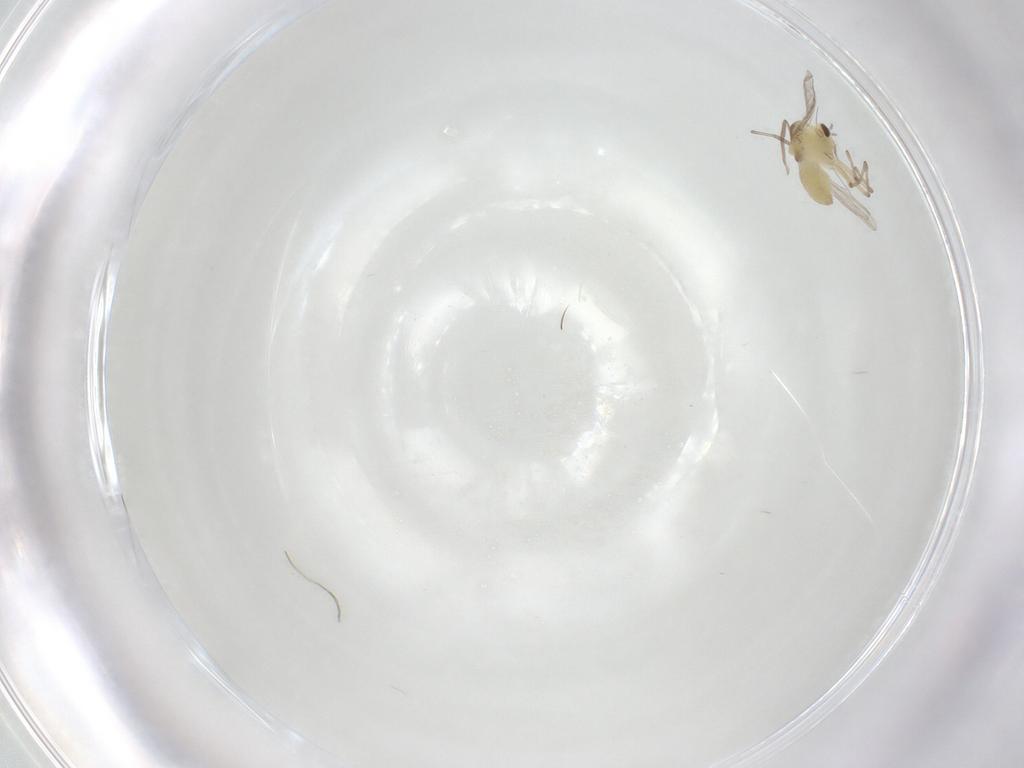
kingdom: Animalia
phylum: Arthropoda
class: Insecta
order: Diptera
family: Chironomidae
